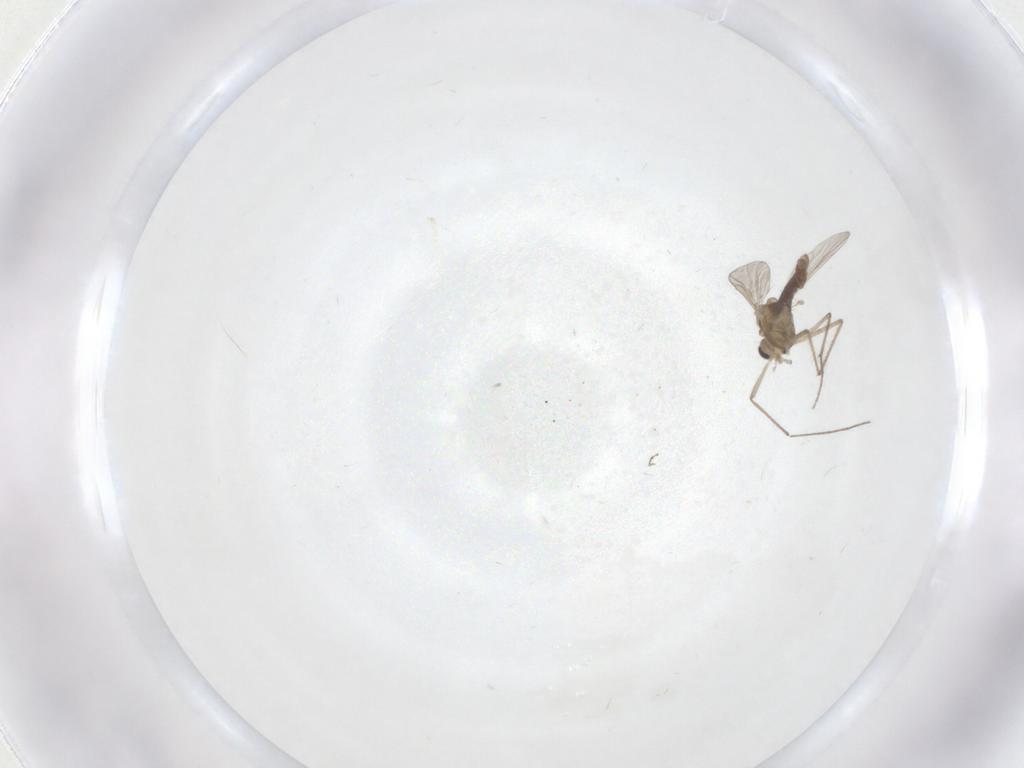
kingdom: Animalia
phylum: Arthropoda
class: Insecta
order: Diptera
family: Chironomidae
